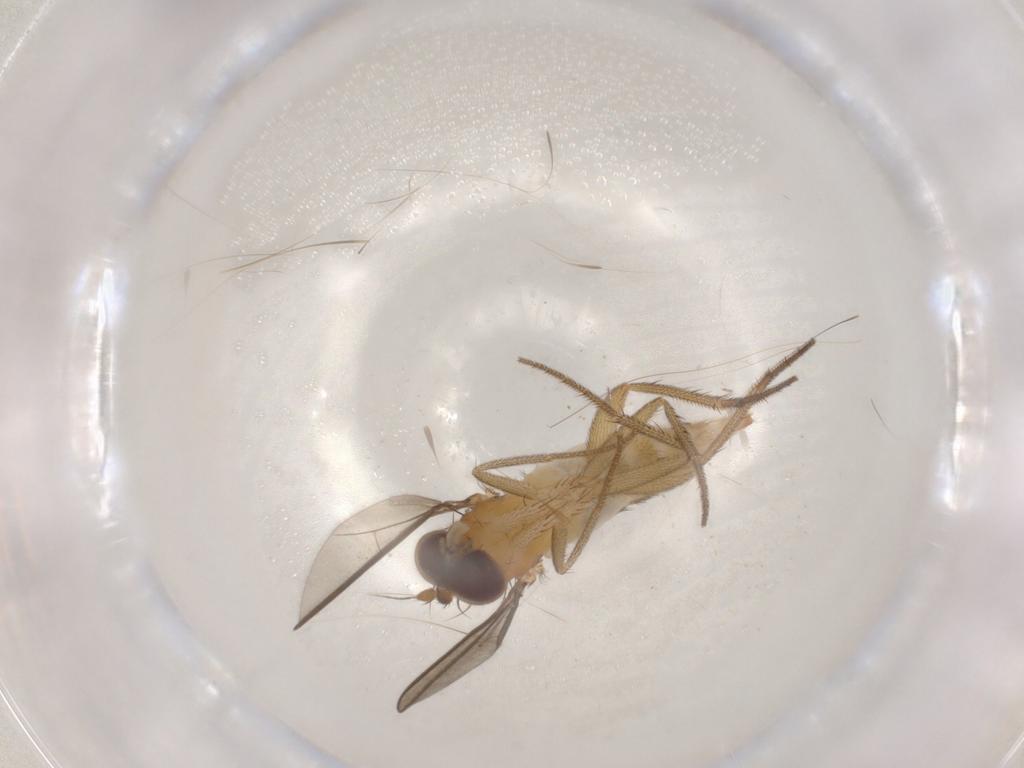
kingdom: Animalia
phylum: Arthropoda
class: Insecta
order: Diptera
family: Dolichopodidae
